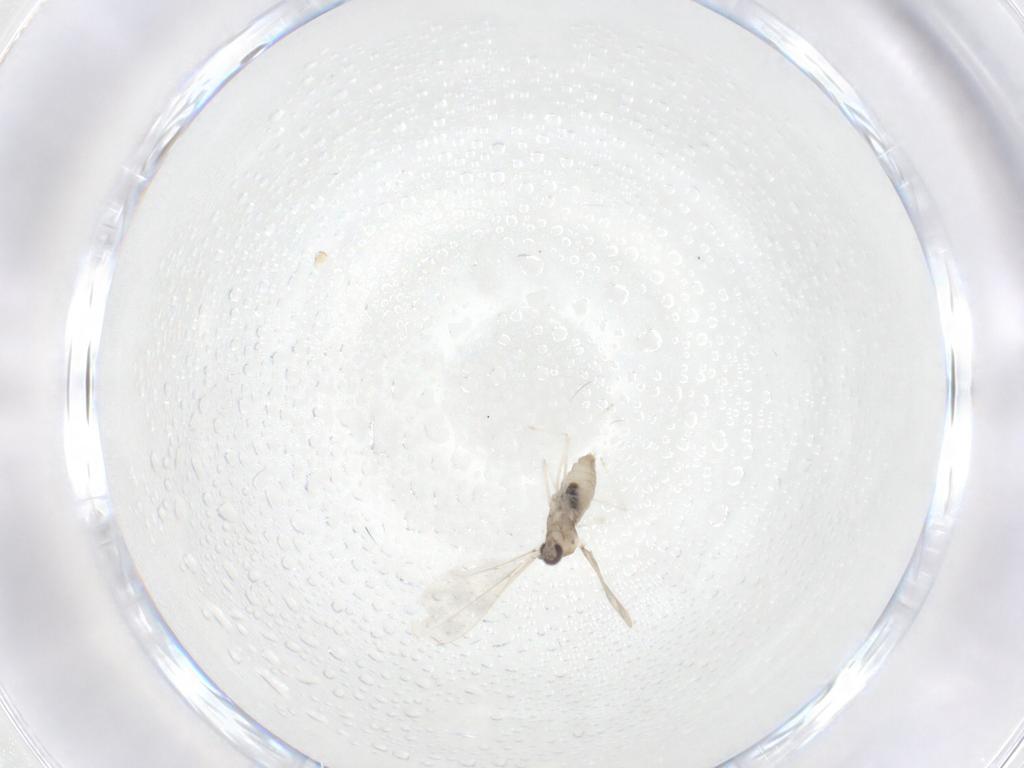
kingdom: Animalia
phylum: Arthropoda
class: Insecta
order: Diptera
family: Cecidomyiidae
